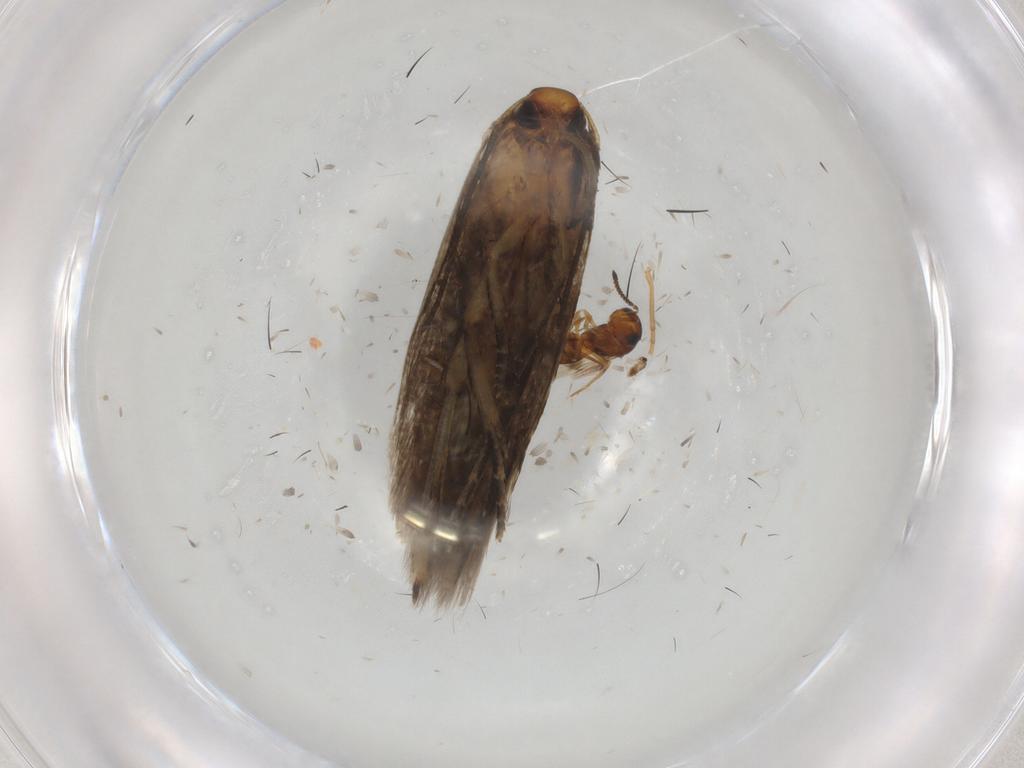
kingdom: Animalia
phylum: Arthropoda
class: Insecta
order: Lepidoptera
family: Cosmopterigidae
